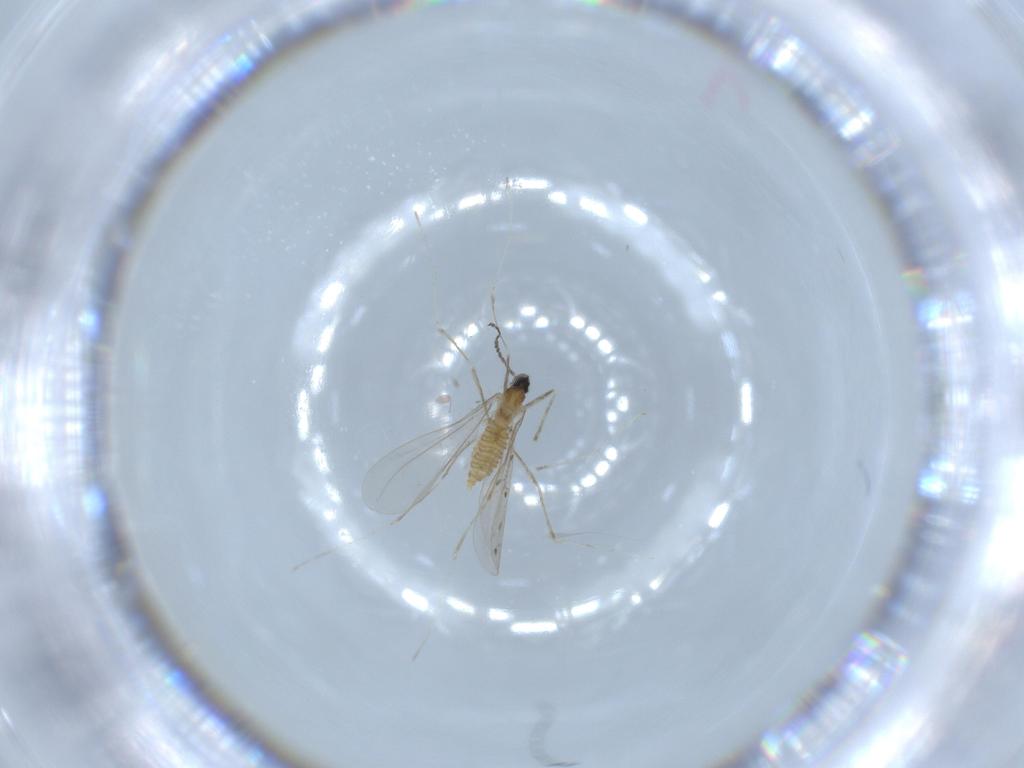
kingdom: Animalia
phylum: Arthropoda
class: Insecta
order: Diptera
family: Cecidomyiidae
